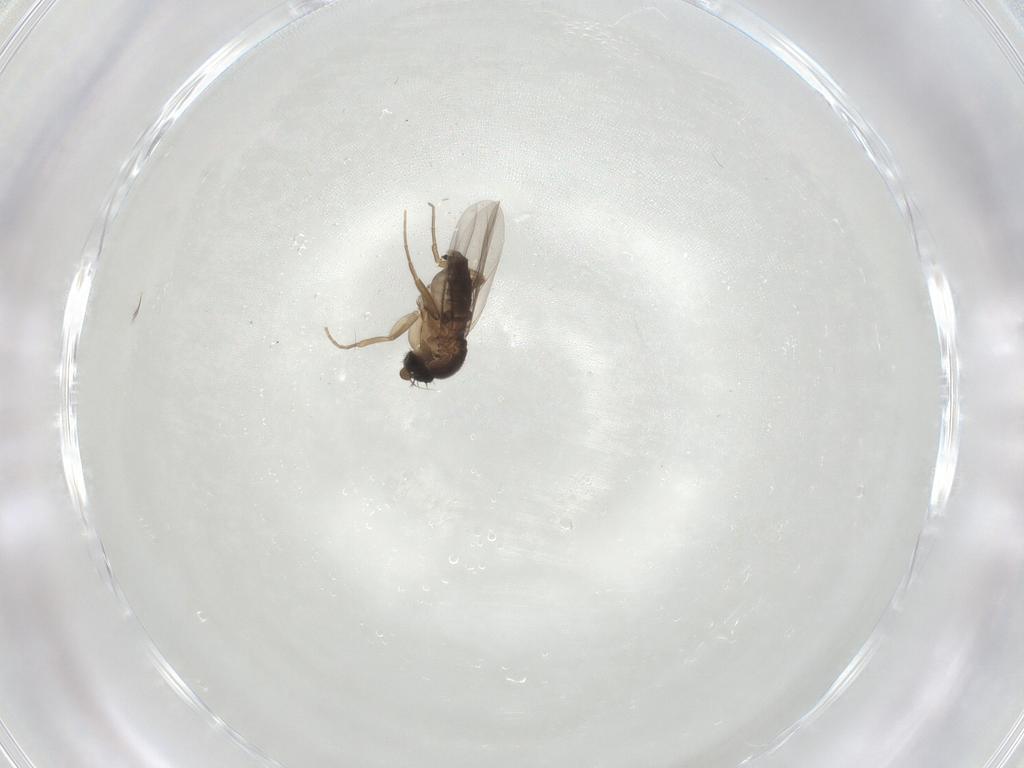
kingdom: Animalia
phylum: Arthropoda
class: Insecta
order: Diptera
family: Phoridae
